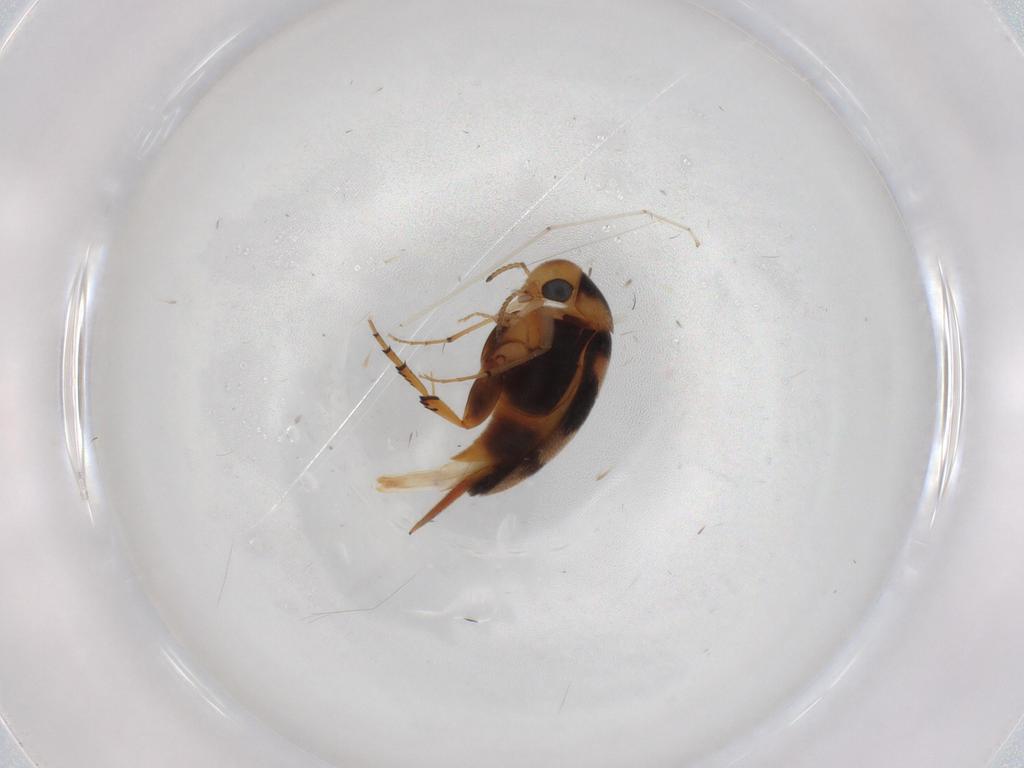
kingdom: Animalia
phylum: Arthropoda
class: Insecta
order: Coleoptera
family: Mordellidae
